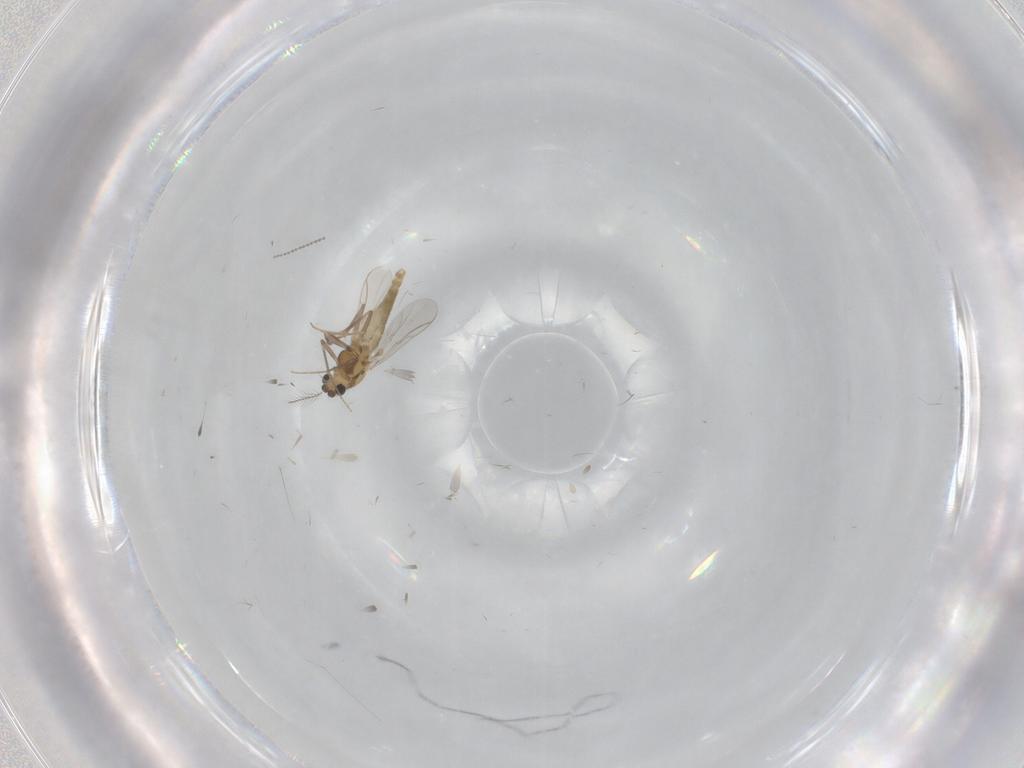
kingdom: Animalia
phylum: Arthropoda
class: Insecta
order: Diptera
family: Chironomidae
